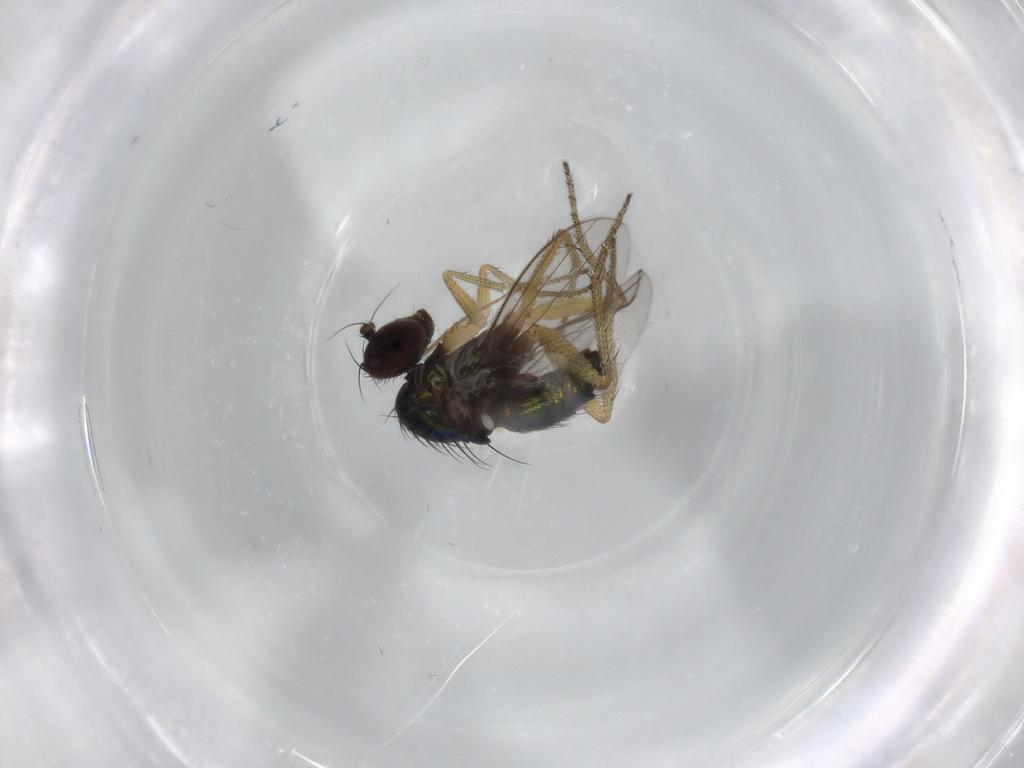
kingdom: Animalia
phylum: Arthropoda
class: Insecta
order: Diptera
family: Dolichopodidae
